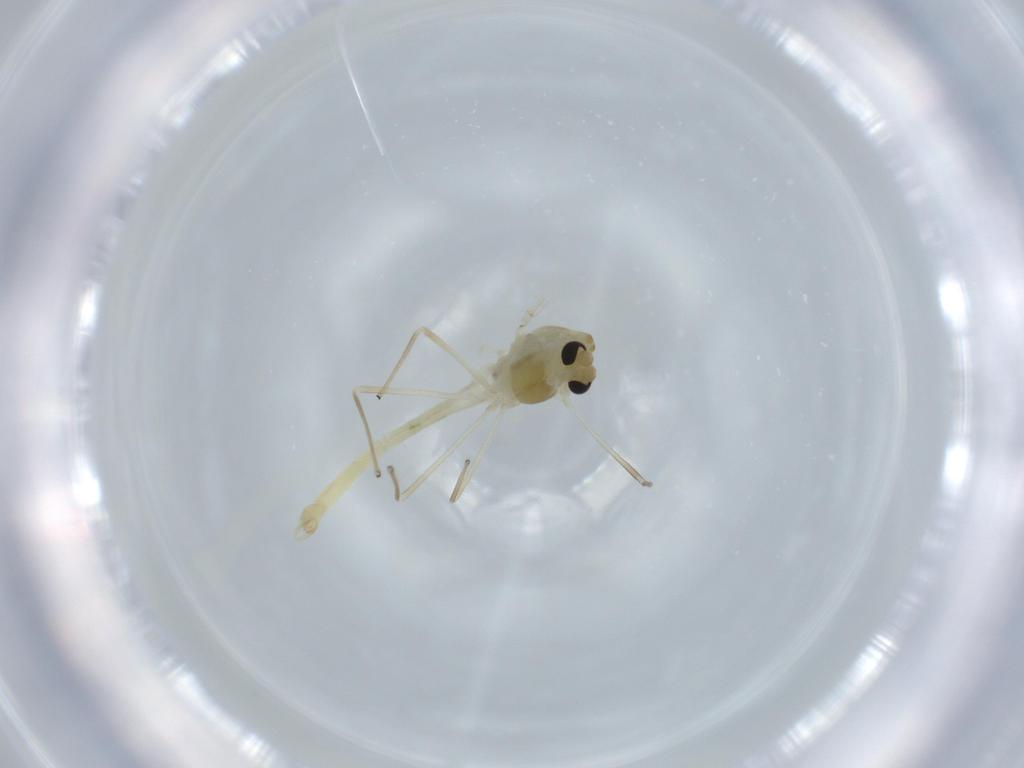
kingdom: Animalia
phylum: Arthropoda
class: Insecta
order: Diptera
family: Chironomidae
